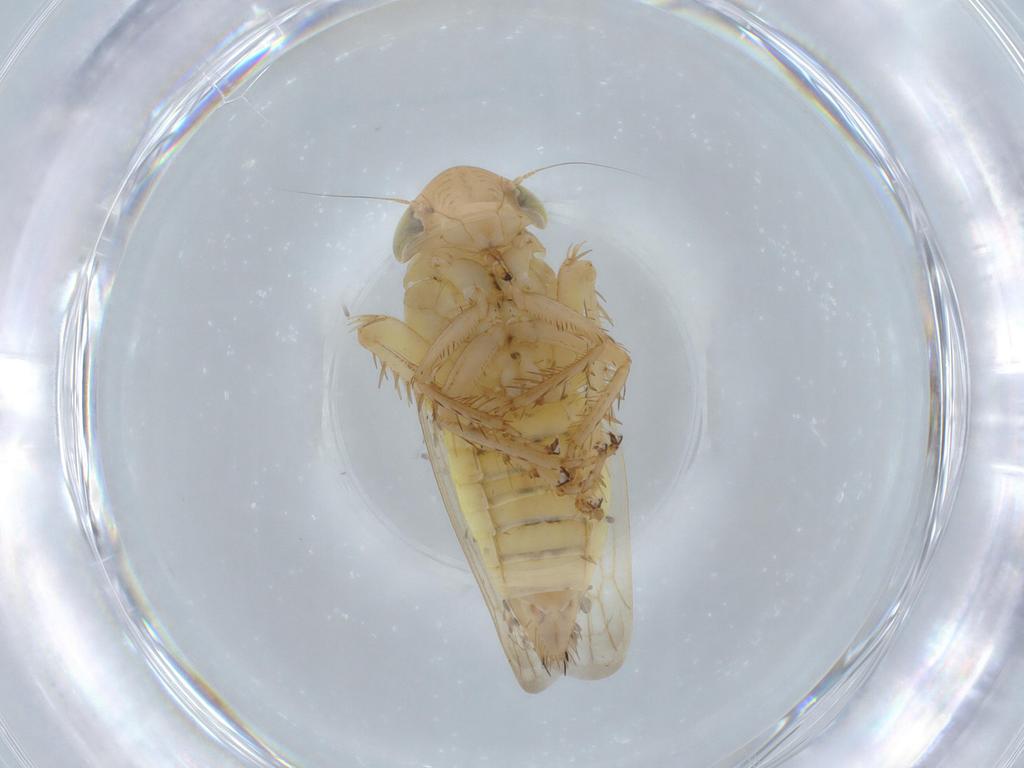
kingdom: Animalia
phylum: Arthropoda
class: Insecta
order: Hemiptera
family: Cicadellidae
